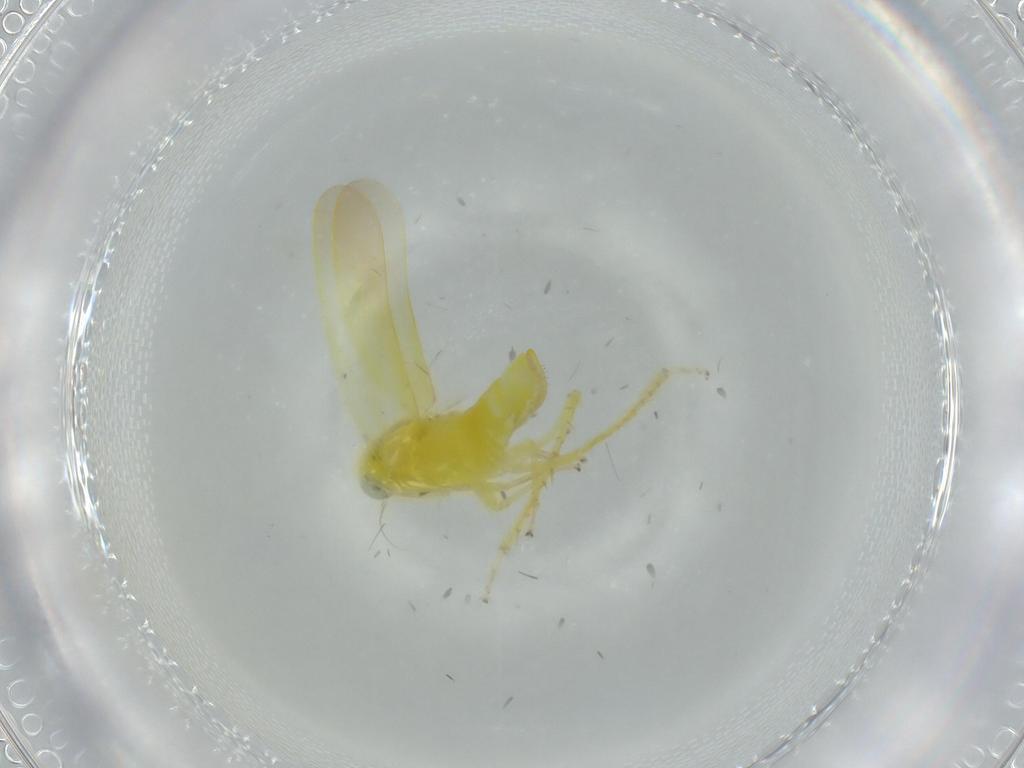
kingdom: Animalia
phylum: Arthropoda
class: Insecta
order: Hemiptera
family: Cicadellidae
